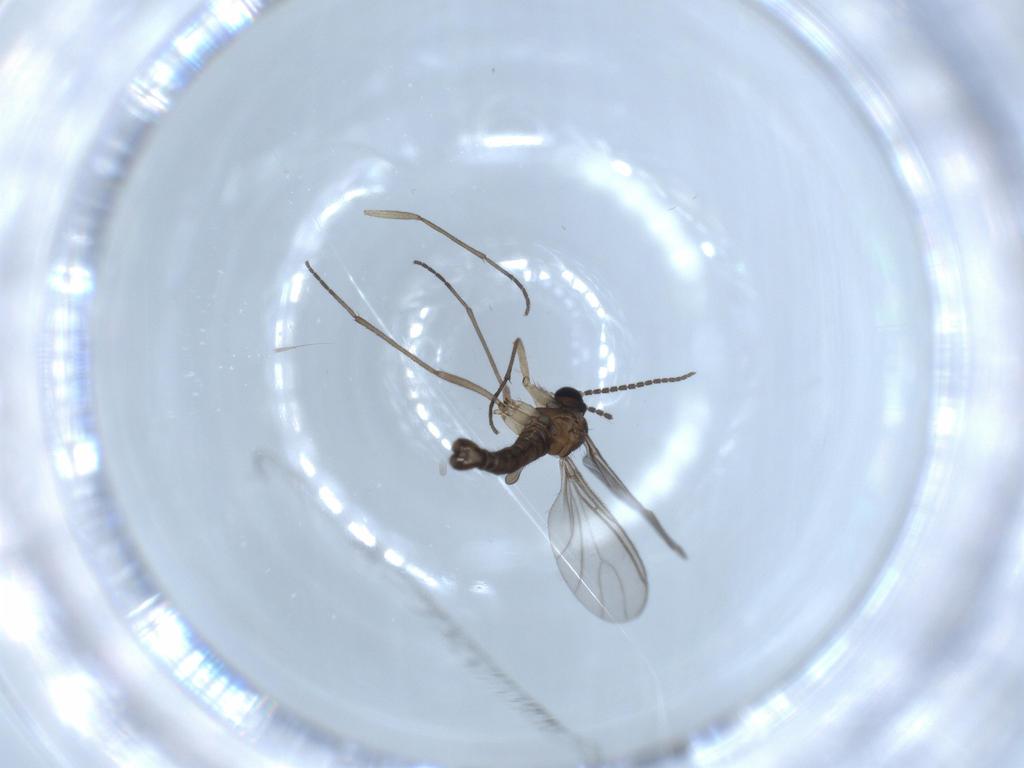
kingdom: Animalia
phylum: Arthropoda
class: Insecta
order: Diptera
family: Sciaridae
